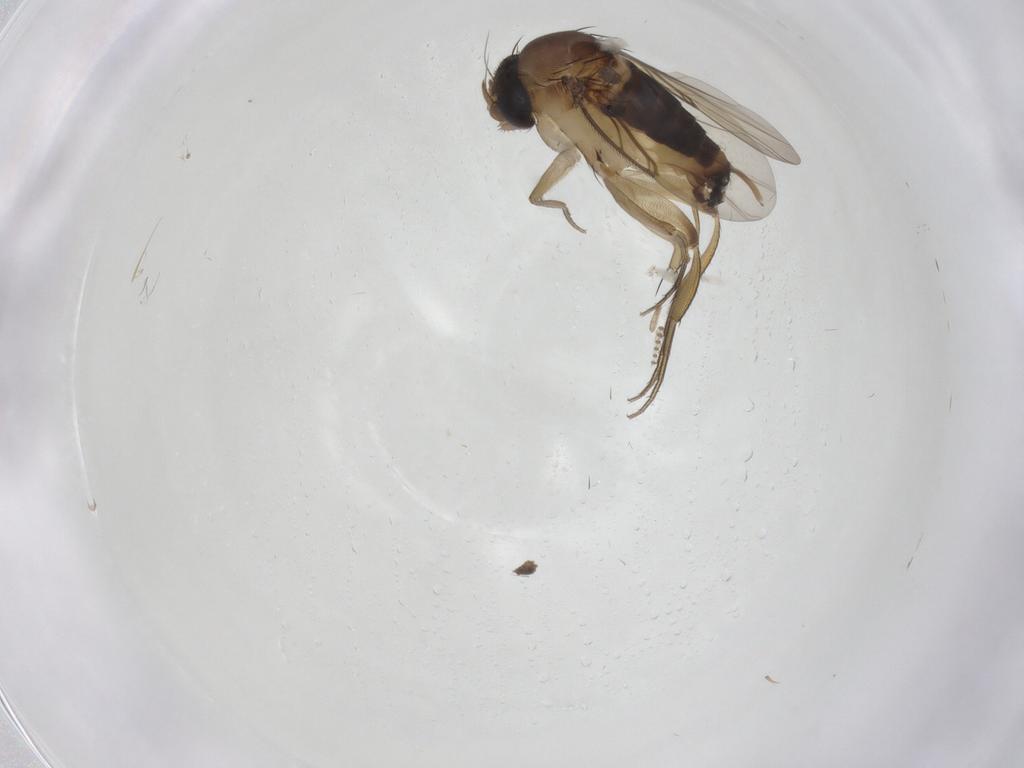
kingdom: Animalia
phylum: Arthropoda
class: Insecta
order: Diptera
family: Phoridae
